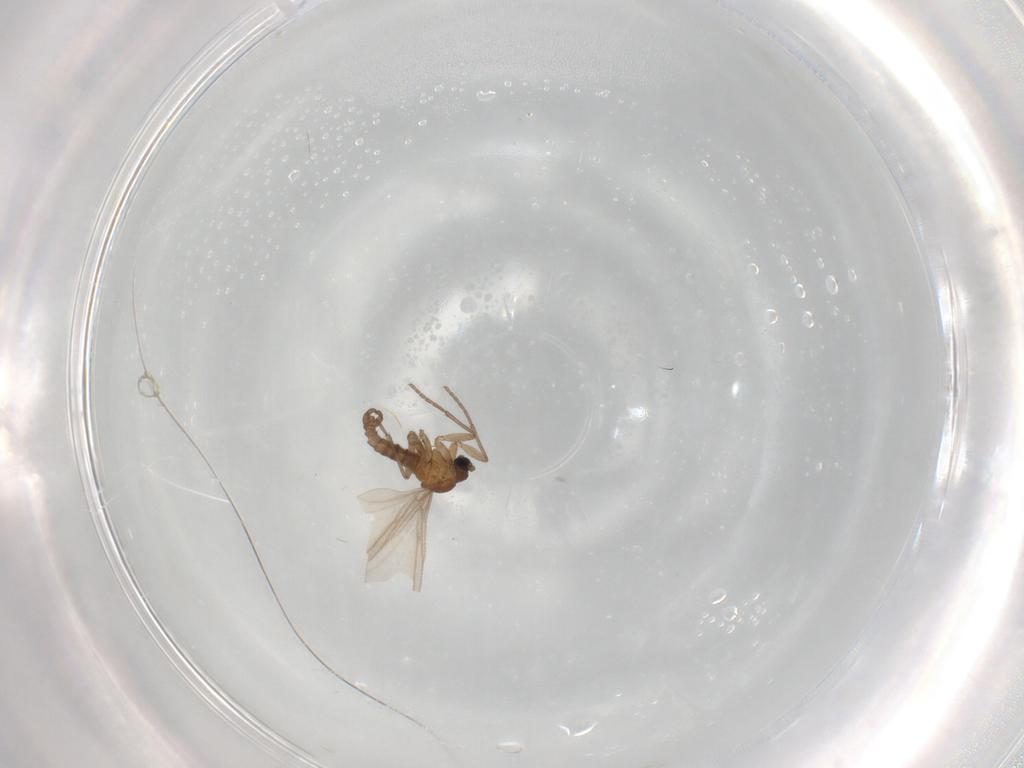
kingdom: Animalia
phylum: Arthropoda
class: Insecta
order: Diptera
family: Sciaridae
